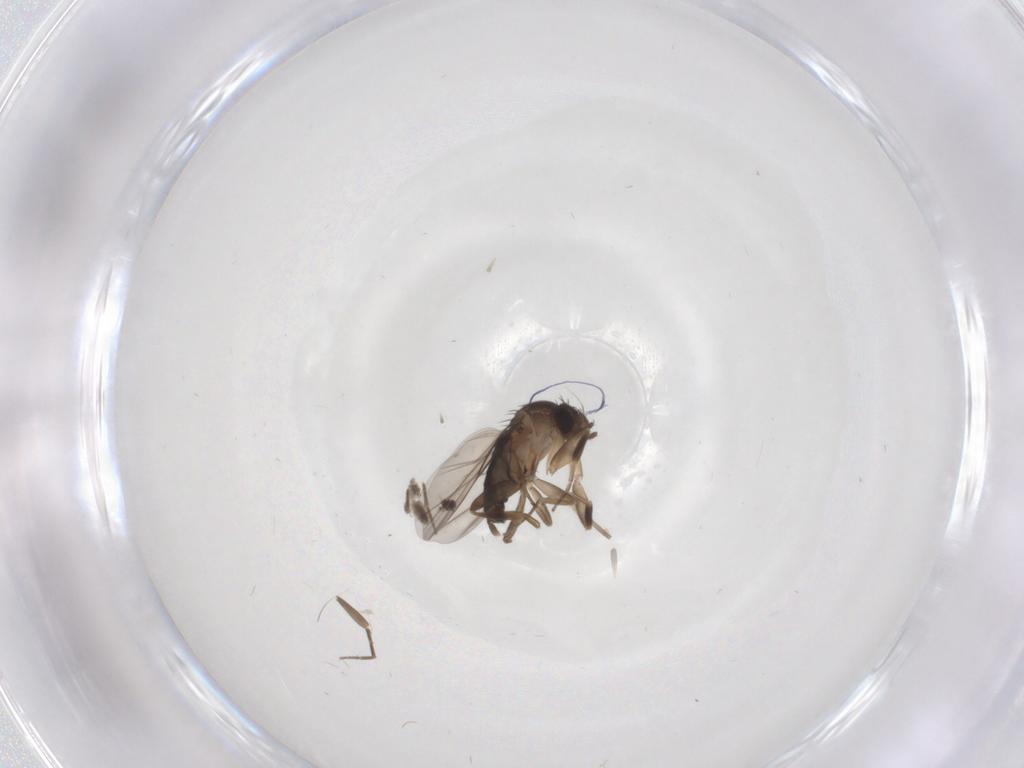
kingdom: Animalia
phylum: Arthropoda
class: Insecta
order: Diptera
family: Phoridae
